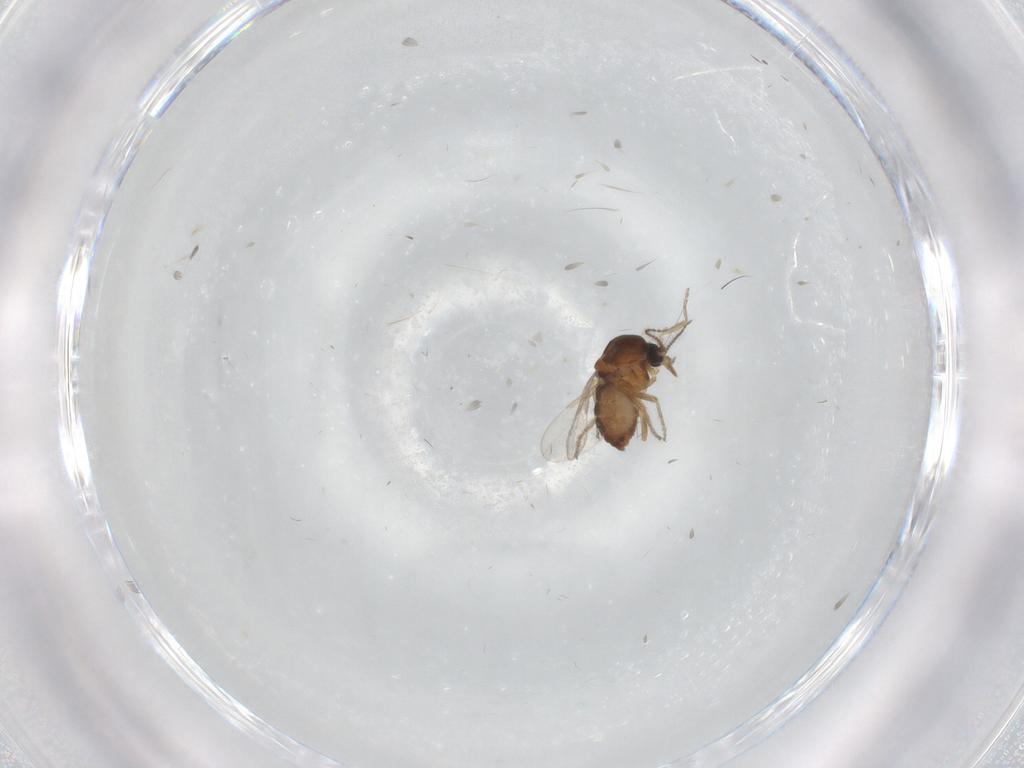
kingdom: Animalia
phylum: Arthropoda
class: Insecta
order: Diptera
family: Ceratopogonidae
